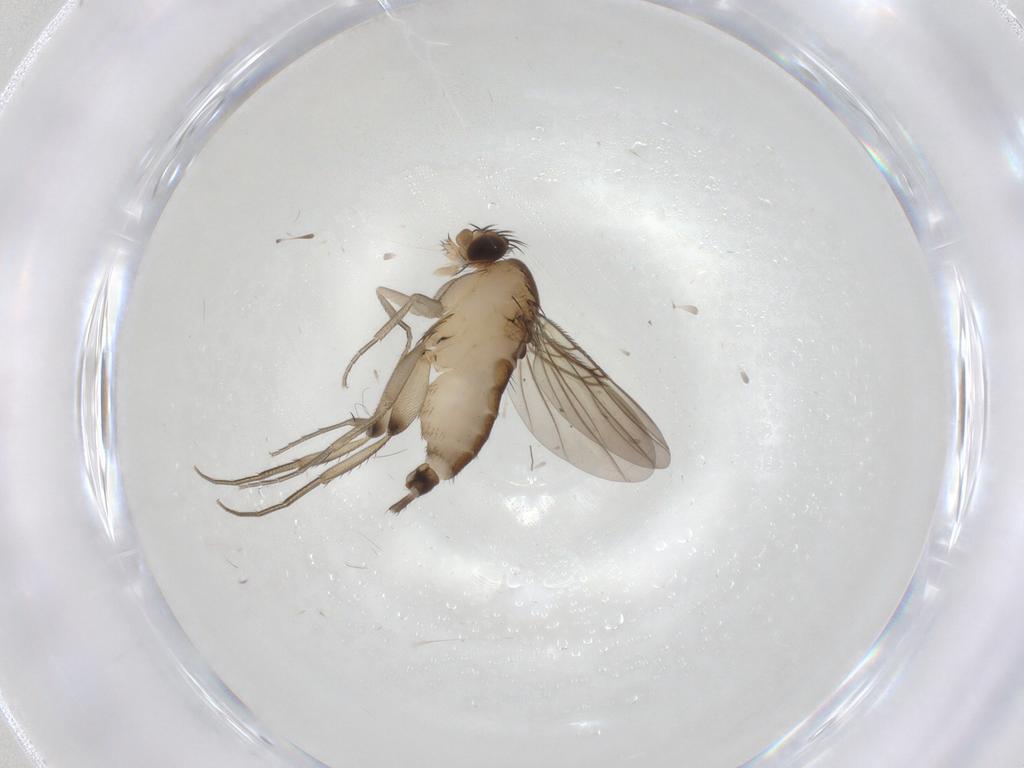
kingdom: Animalia
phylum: Arthropoda
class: Insecta
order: Diptera
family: Phoridae
